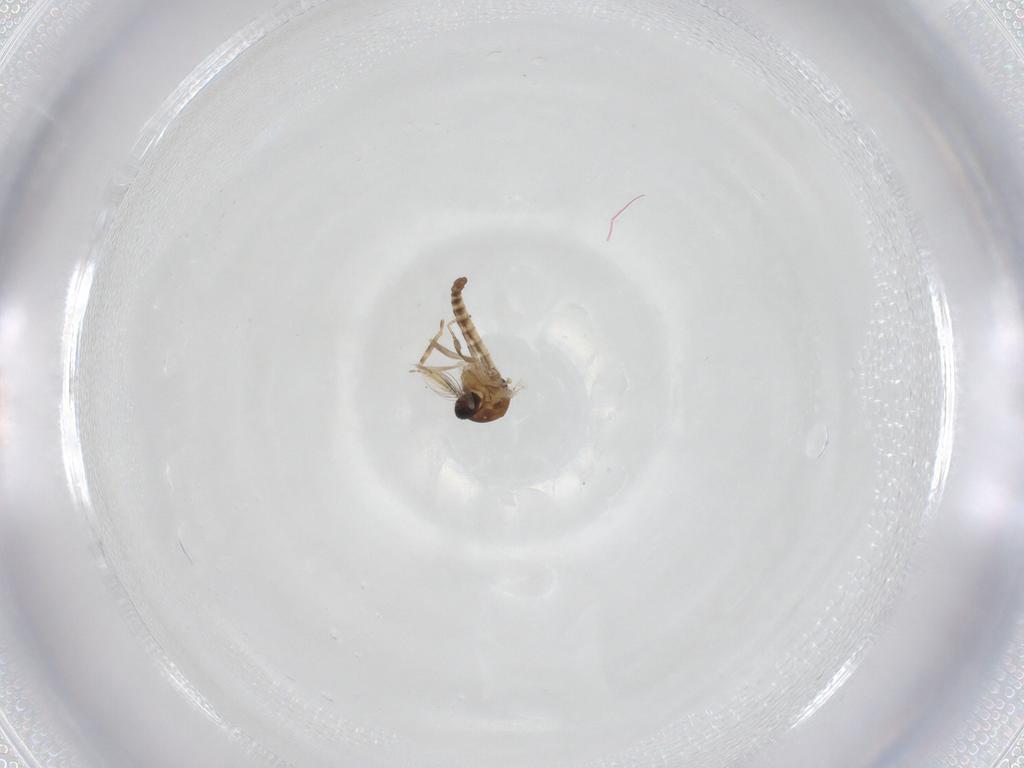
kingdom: Animalia
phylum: Arthropoda
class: Insecta
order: Diptera
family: Ceratopogonidae
